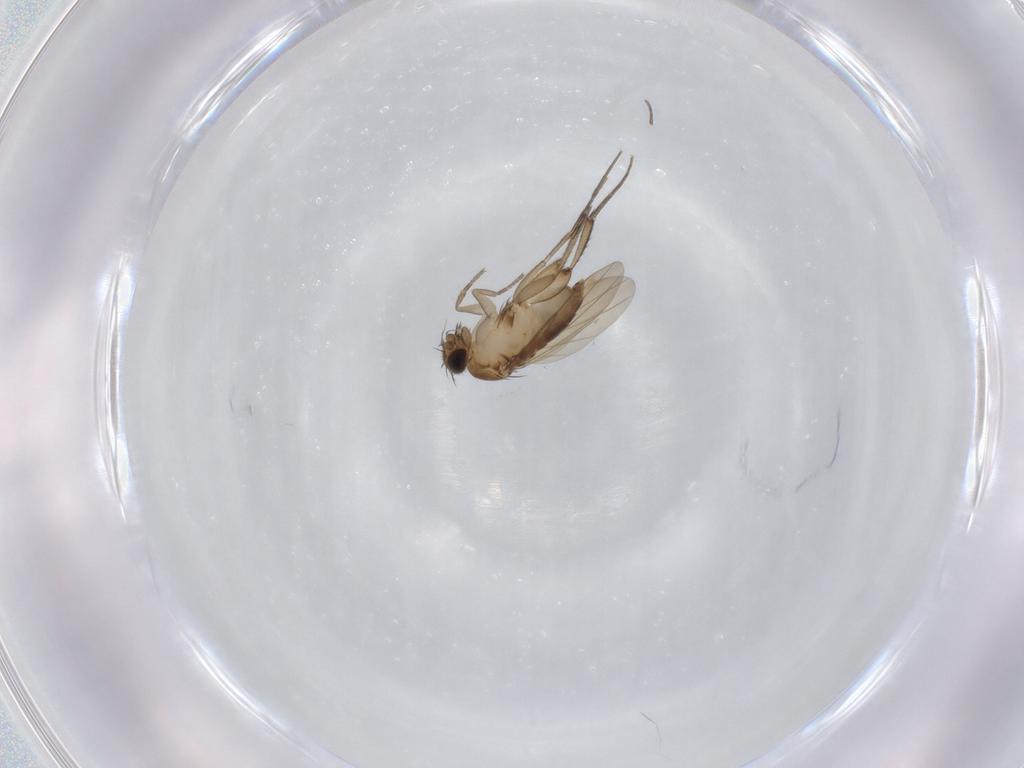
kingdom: Animalia
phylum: Arthropoda
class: Insecta
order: Diptera
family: Phoridae
